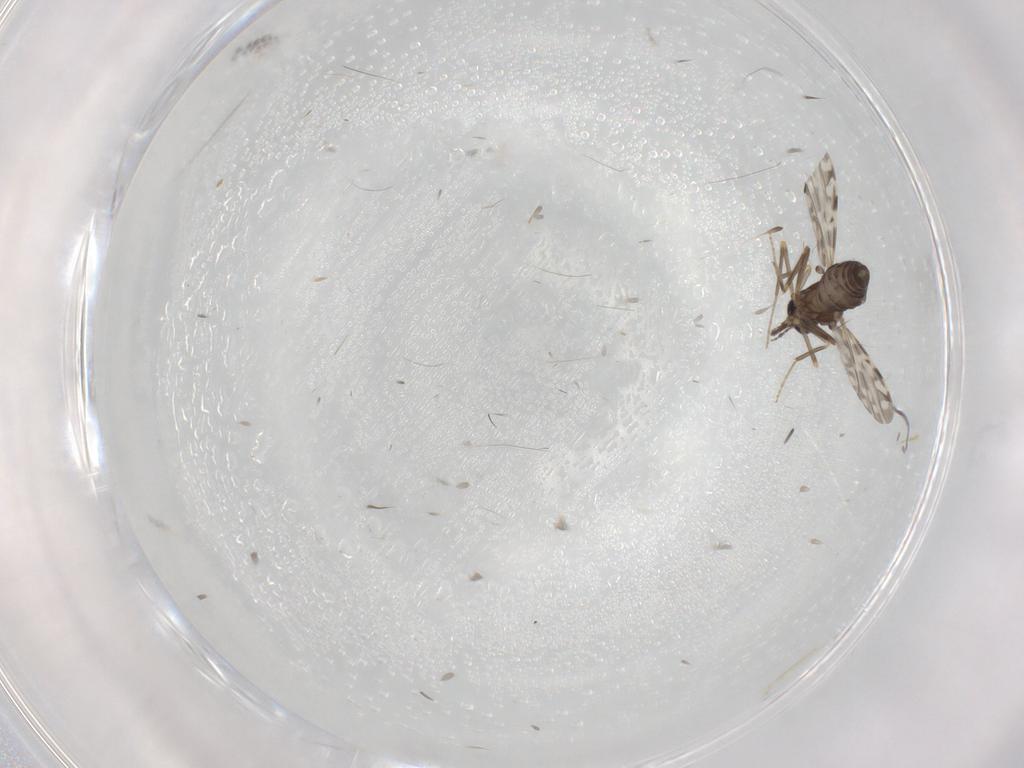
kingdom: Animalia
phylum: Arthropoda
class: Insecta
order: Diptera
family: Ceratopogonidae
